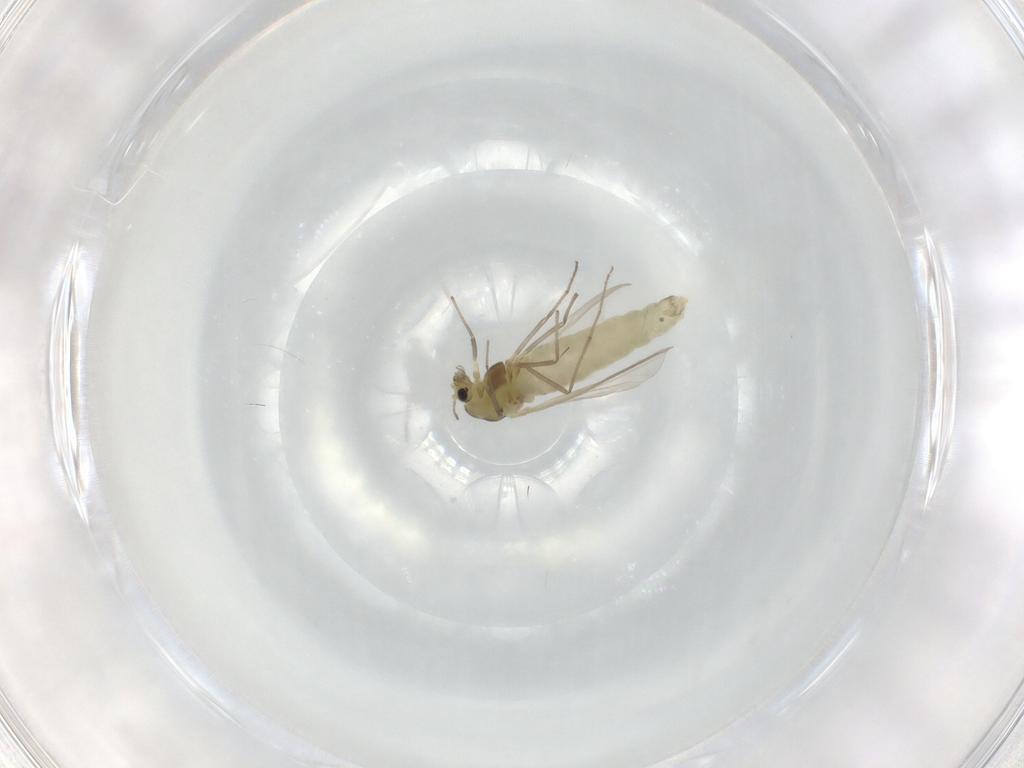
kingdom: Animalia
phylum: Arthropoda
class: Insecta
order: Diptera
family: Chironomidae
